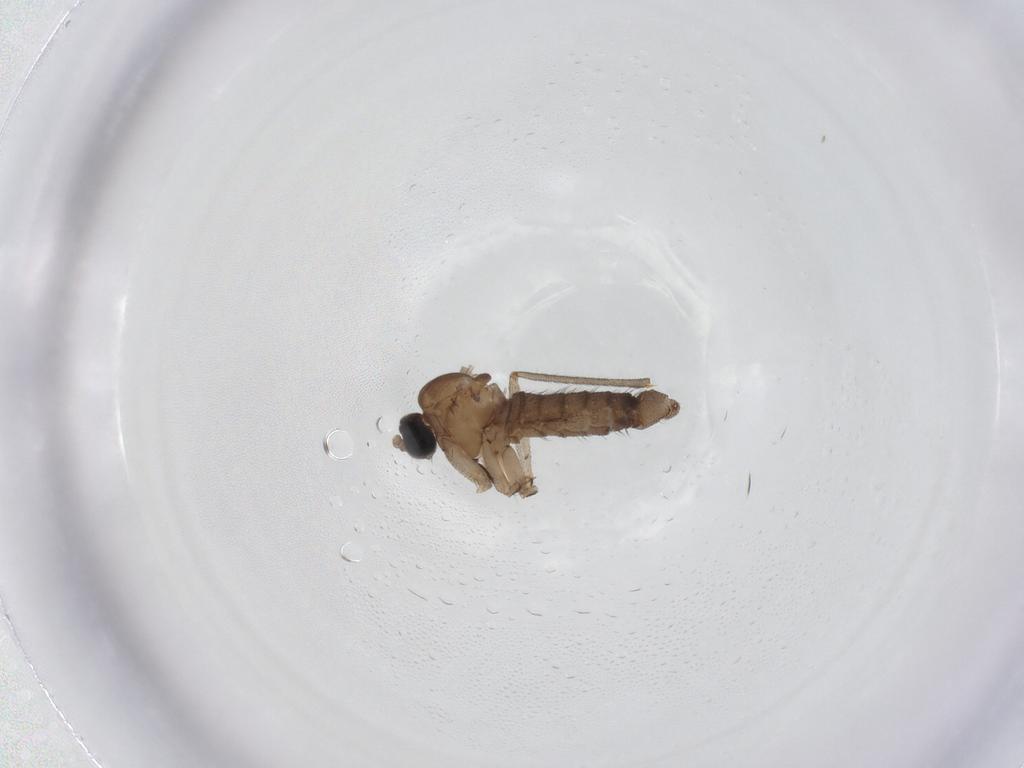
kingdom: Animalia
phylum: Arthropoda
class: Insecta
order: Diptera
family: Sciaridae
